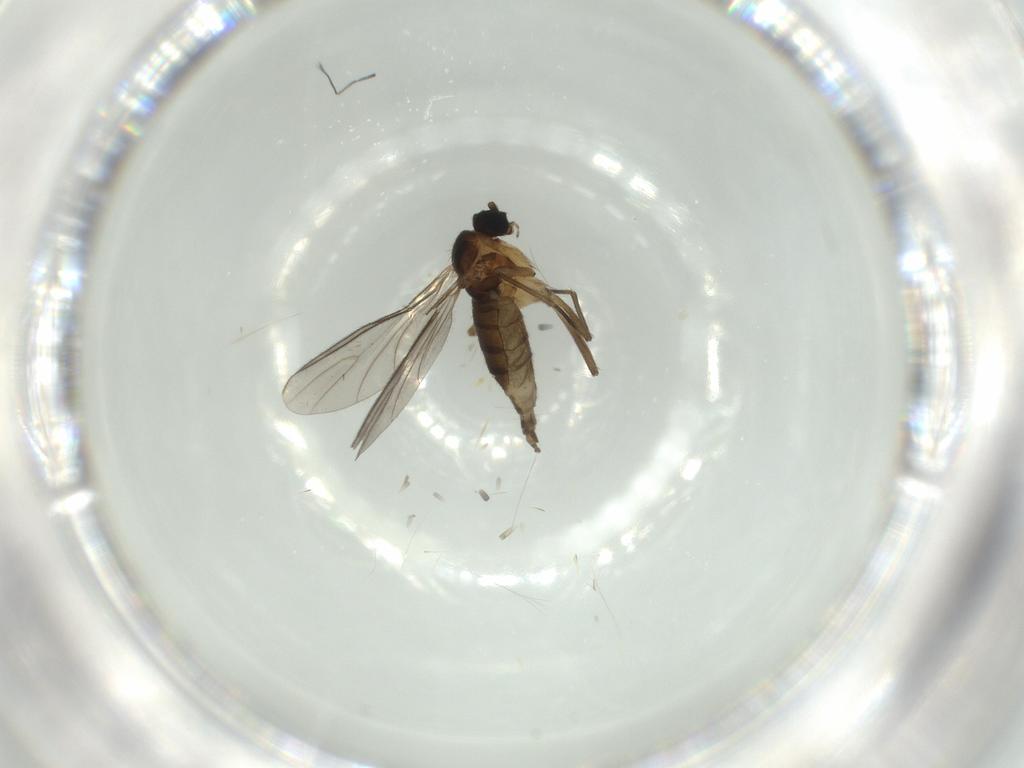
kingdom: Animalia
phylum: Arthropoda
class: Insecta
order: Diptera
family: Sciaridae
